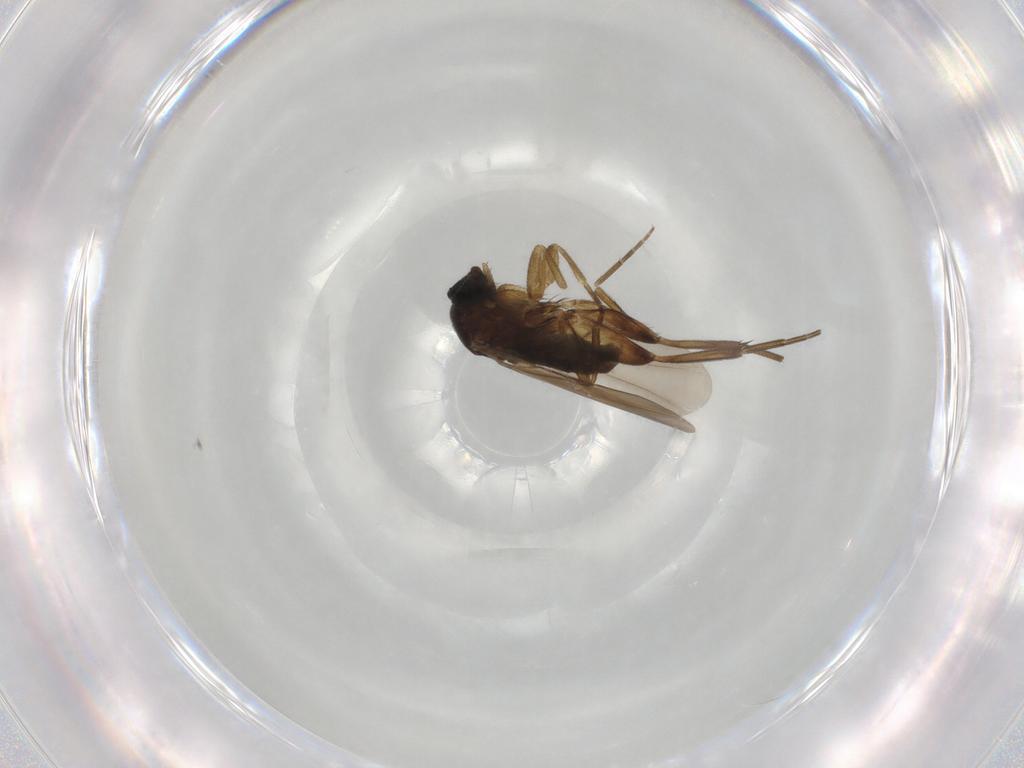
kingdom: Animalia
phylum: Arthropoda
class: Insecta
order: Diptera
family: Phoridae
